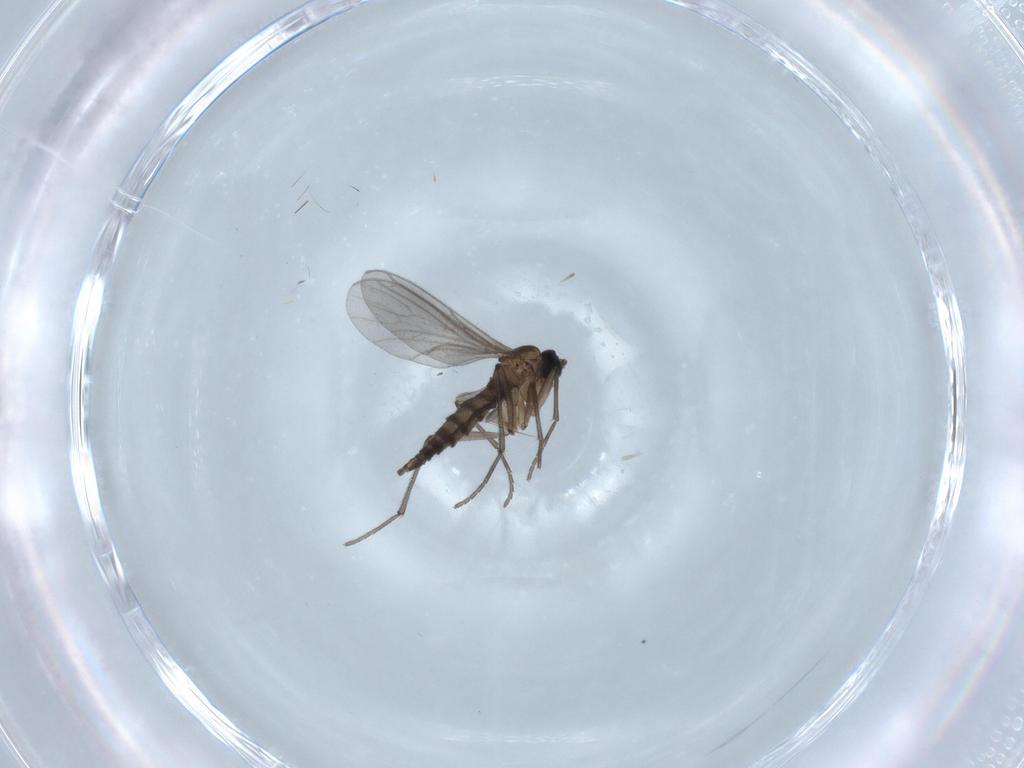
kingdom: Animalia
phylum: Arthropoda
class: Insecta
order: Diptera
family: Sciaridae
